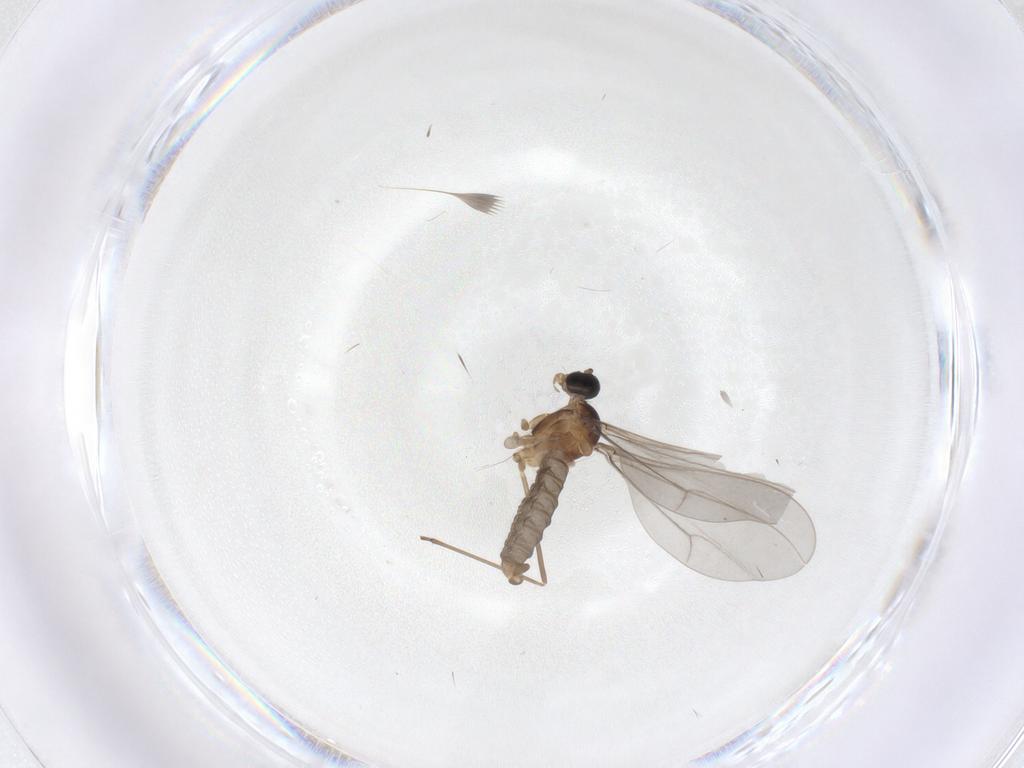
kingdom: Animalia
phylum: Arthropoda
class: Insecta
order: Diptera
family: Cecidomyiidae
